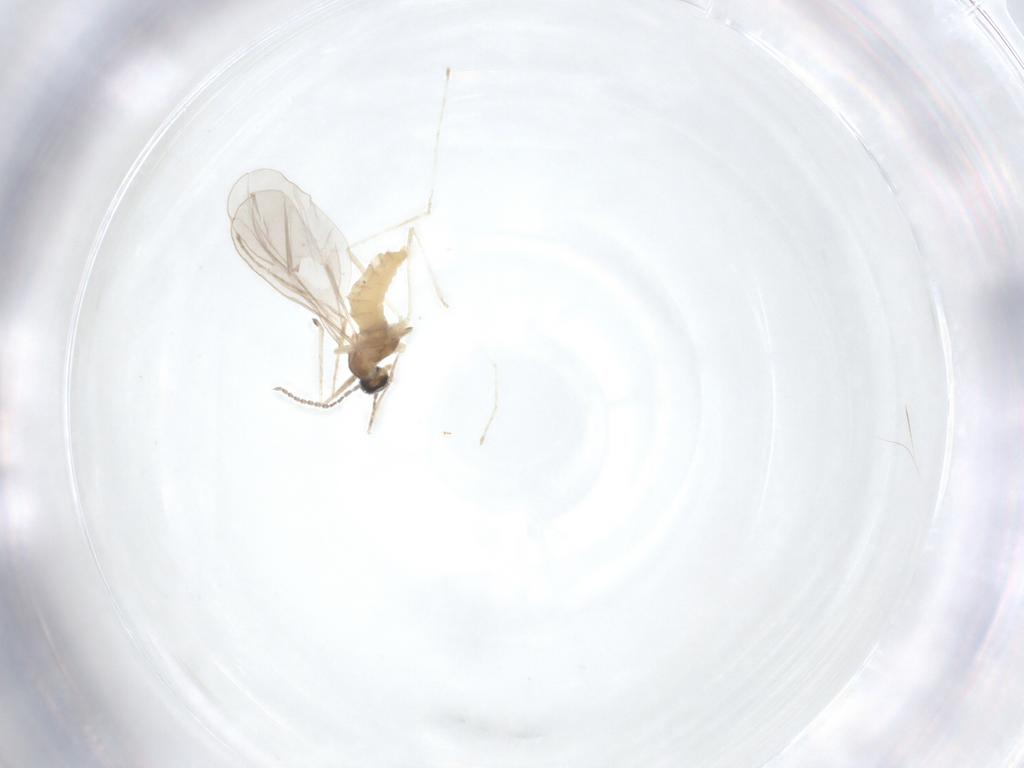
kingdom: Animalia
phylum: Arthropoda
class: Insecta
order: Diptera
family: Cecidomyiidae
